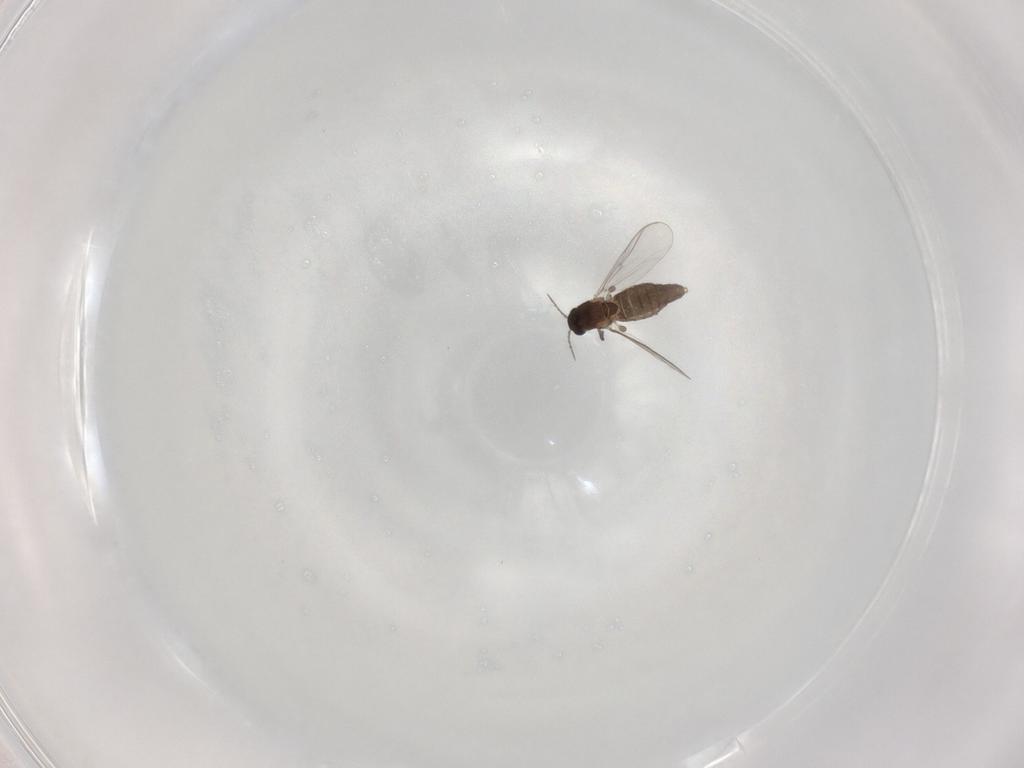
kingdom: Animalia
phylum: Arthropoda
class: Insecta
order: Diptera
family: Chironomidae
